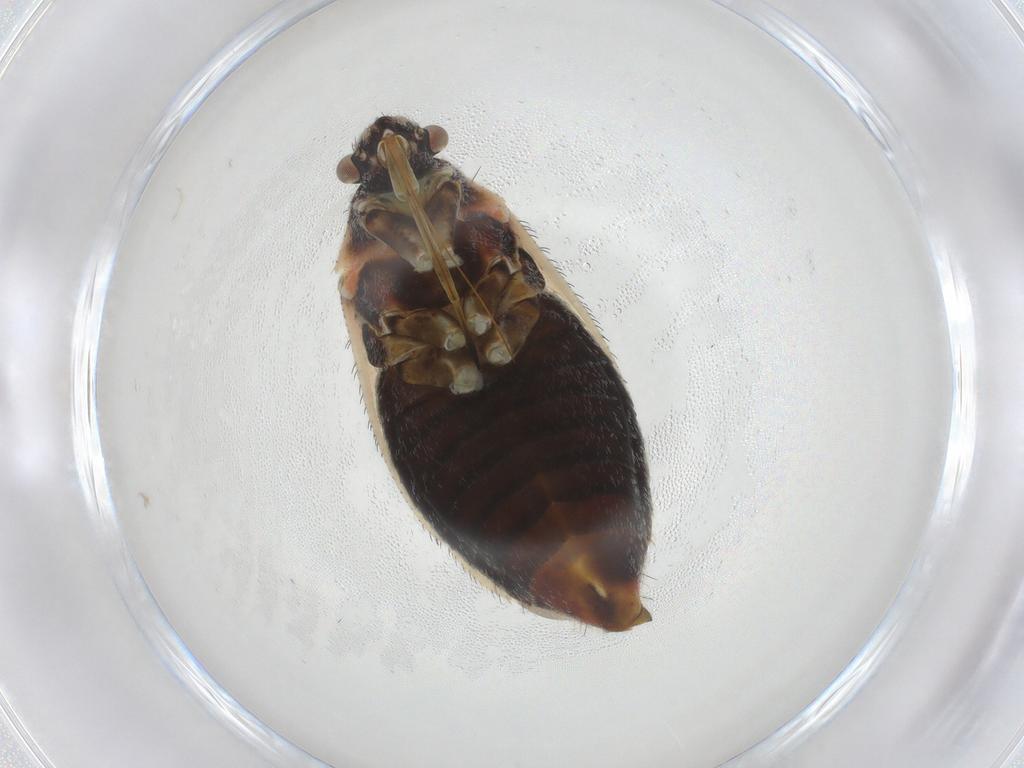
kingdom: Animalia
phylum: Arthropoda
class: Insecta
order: Hemiptera
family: Miridae
